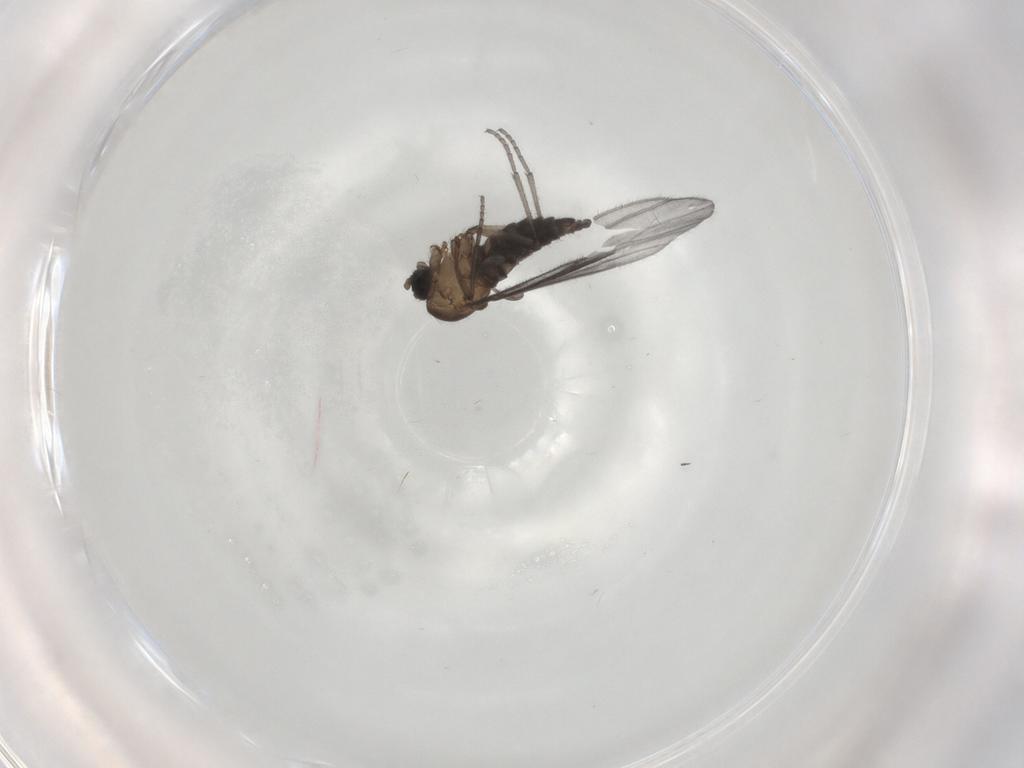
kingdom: Animalia
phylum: Arthropoda
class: Insecta
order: Diptera
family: Sciaridae
